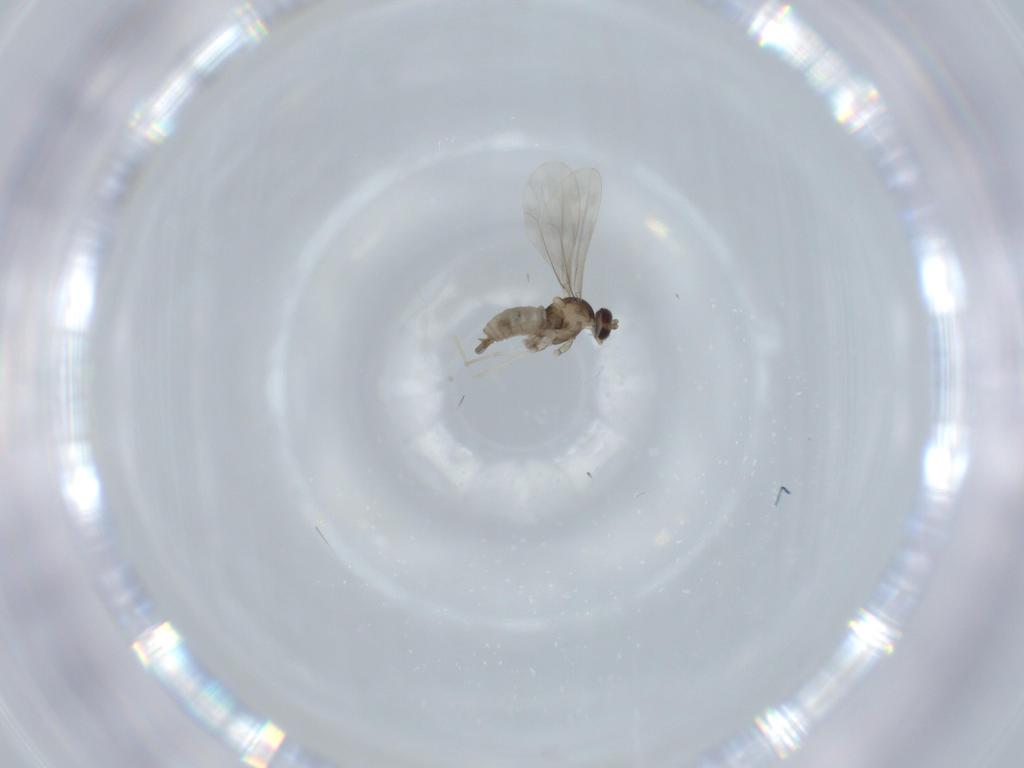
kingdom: Animalia
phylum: Arthropoda
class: Insecta
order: Diptera
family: Cecidomyiidae
